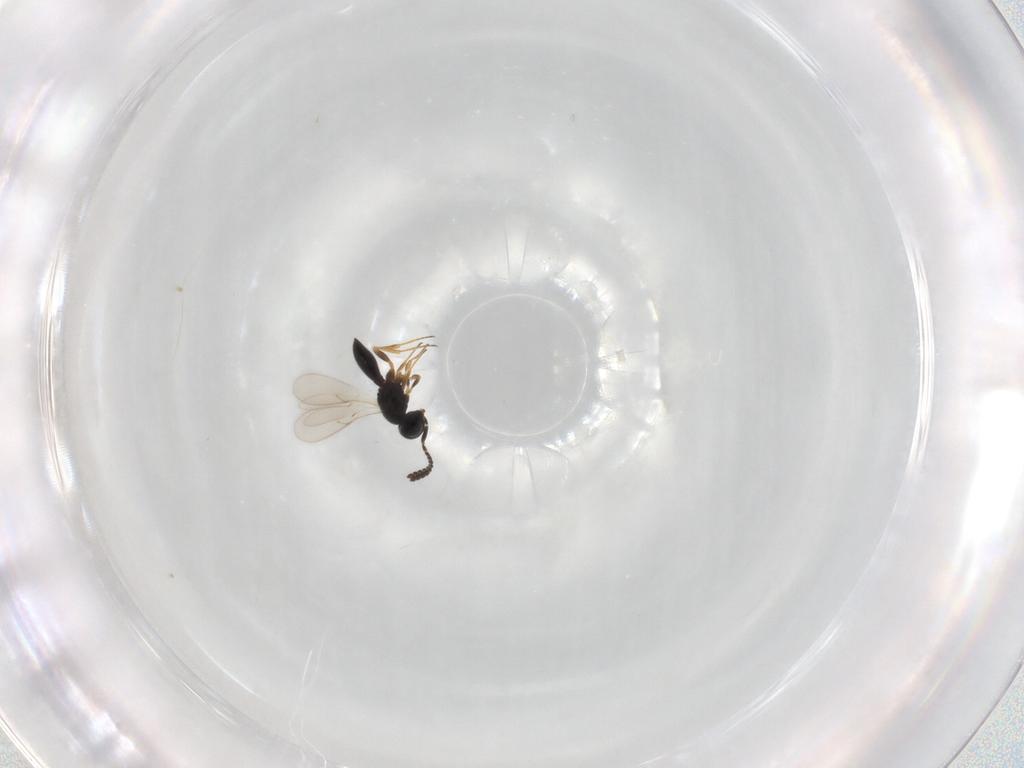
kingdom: Animalia
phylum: Arthropoda
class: Insecta
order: Hymenoptera
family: Scelionidae
